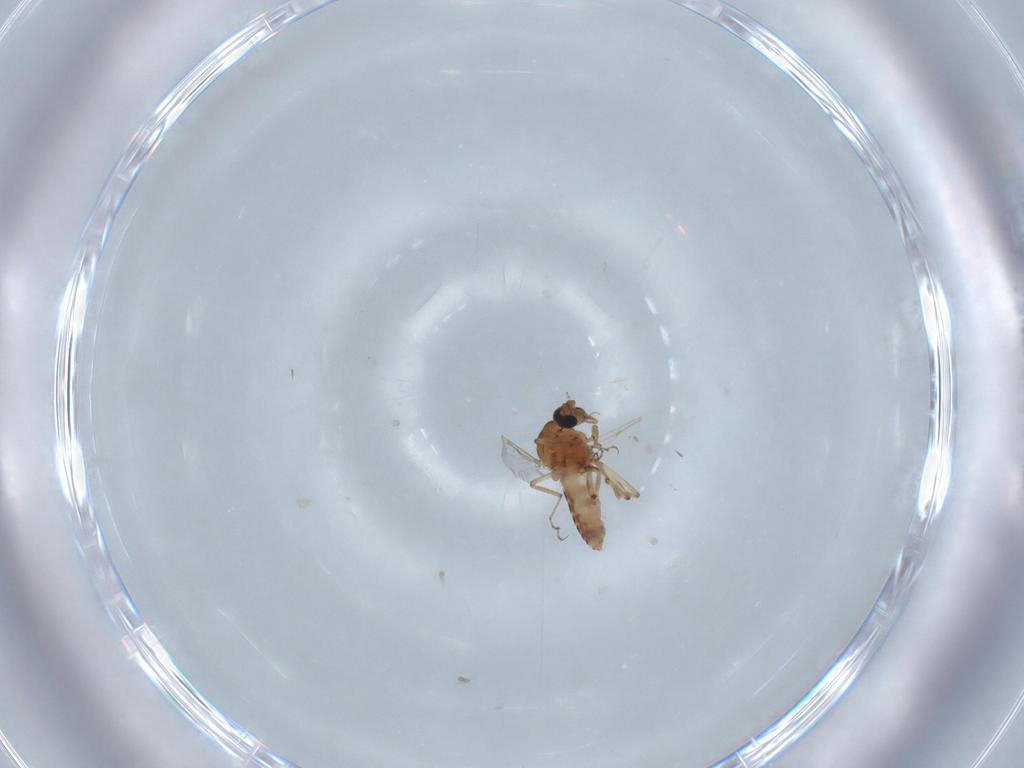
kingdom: Animalia
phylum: Arthropoda
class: Insecta
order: Diptera
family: Ceratopogonidae
